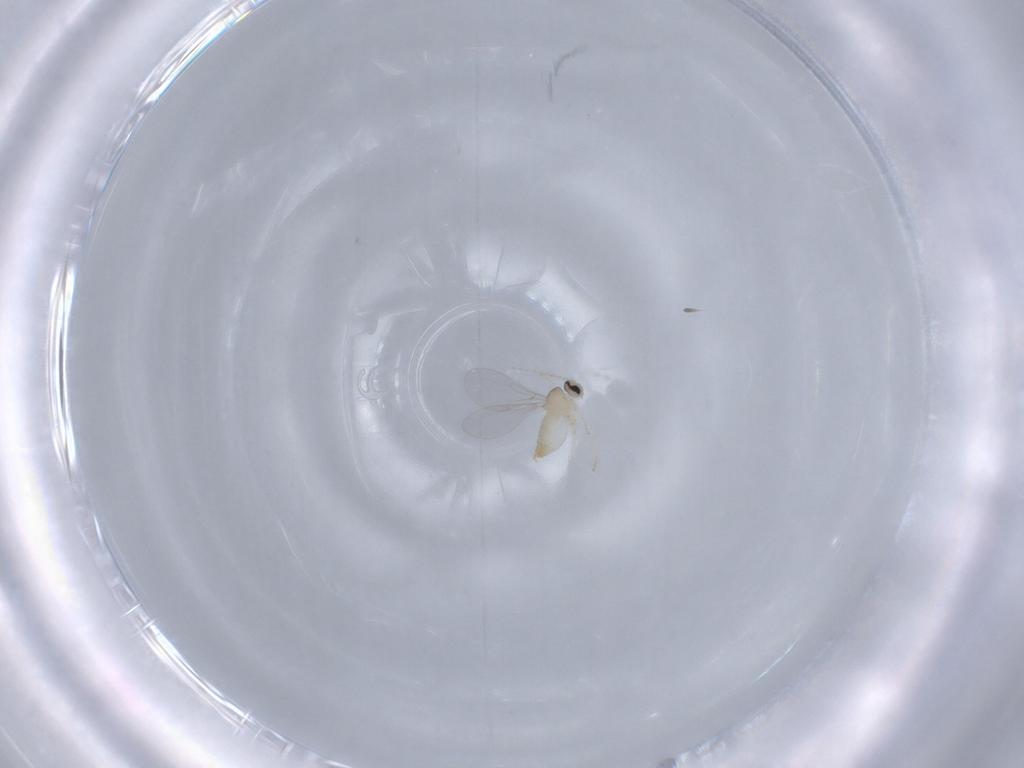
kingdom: Animalia
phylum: Arthropoda
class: Insecta
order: Diptera
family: Cecidomyiidae
